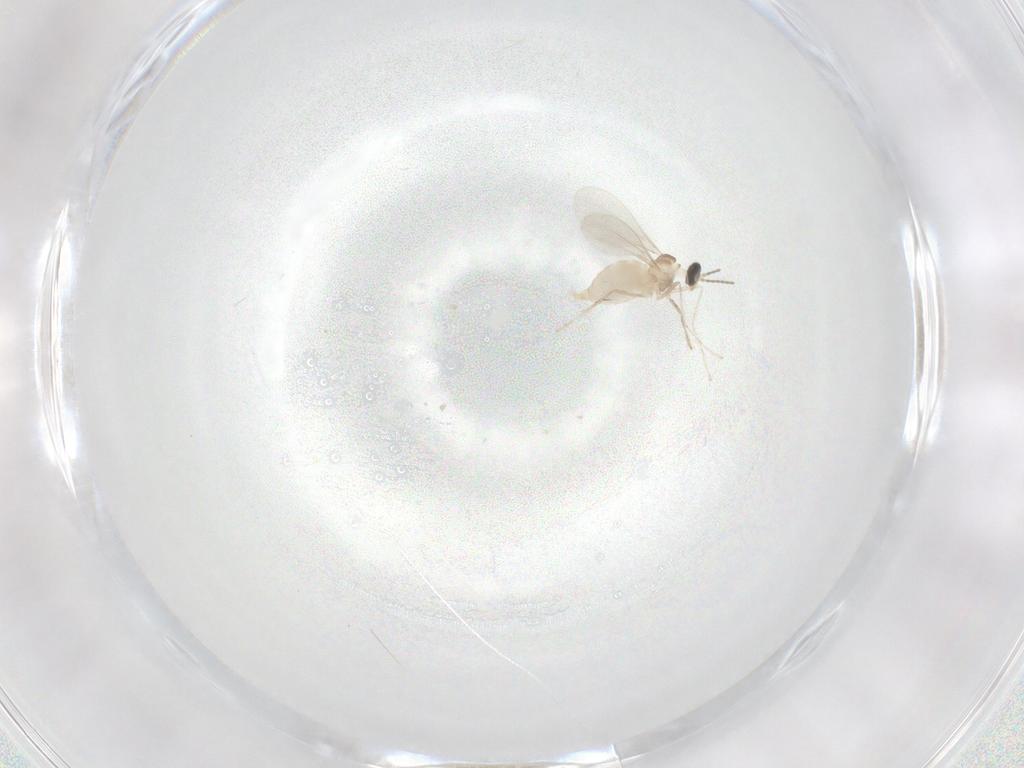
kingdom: Animalia
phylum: Arthropoda
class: Insecta
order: Diptera
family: Cecidomyiidae
